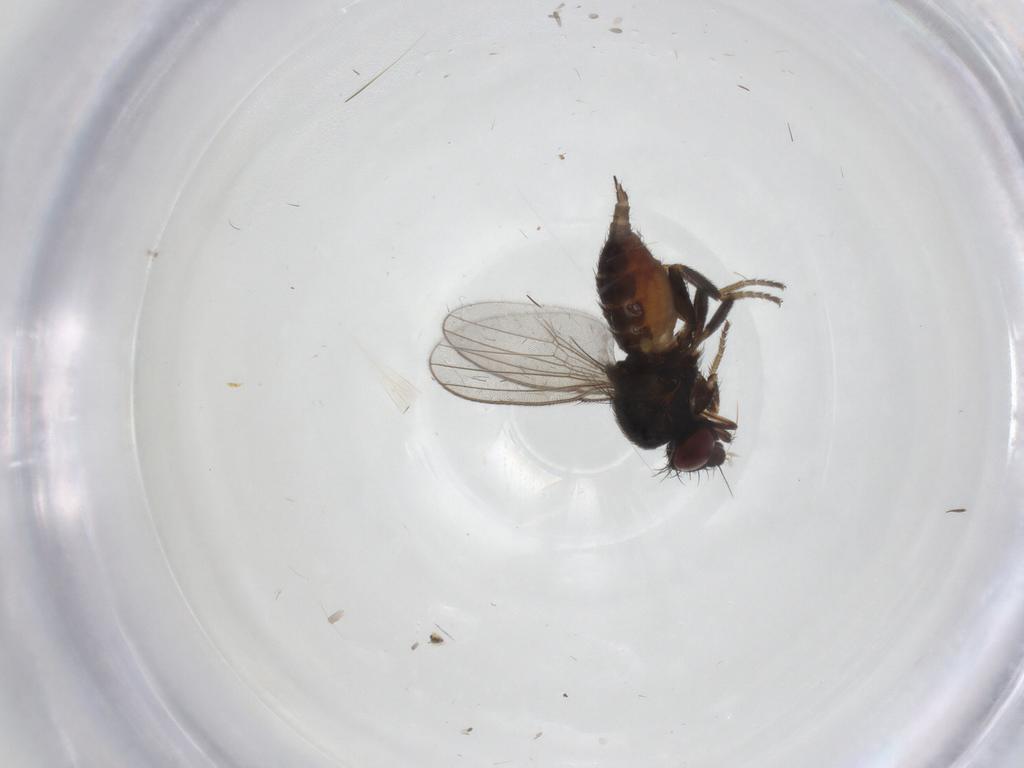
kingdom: Animalia
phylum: Arthropoda
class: Insecta
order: Diptera
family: Milichiidae
